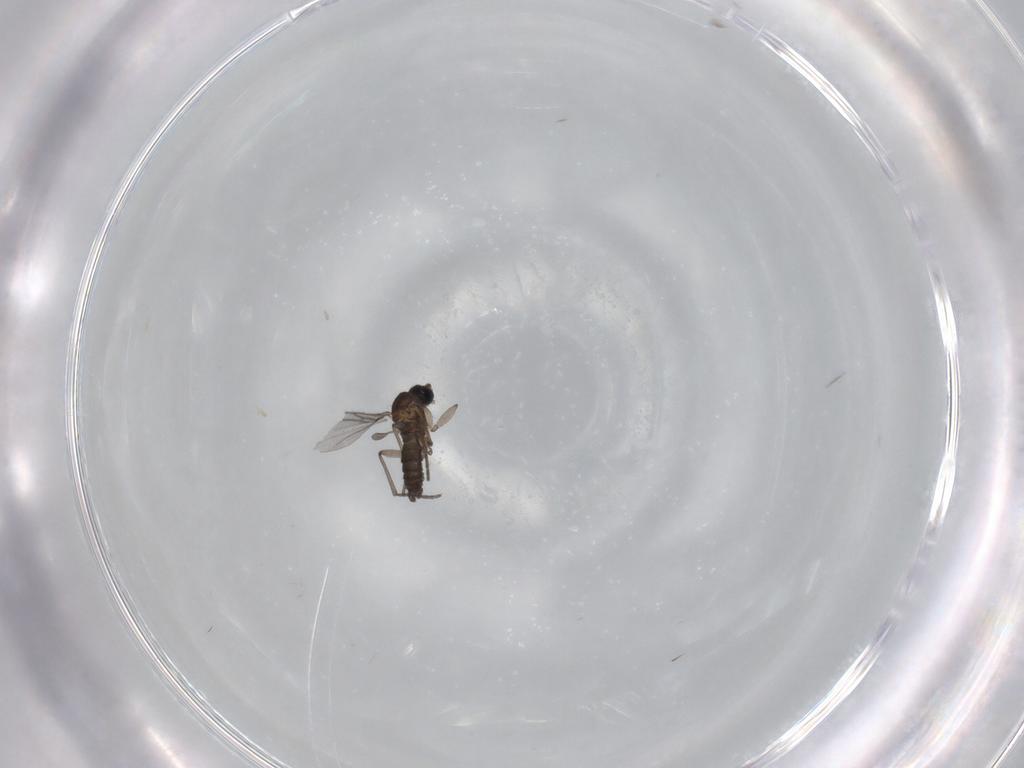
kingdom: Animalia
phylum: Arthropoda
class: Insecta
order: Diptera
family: Sciaridae
